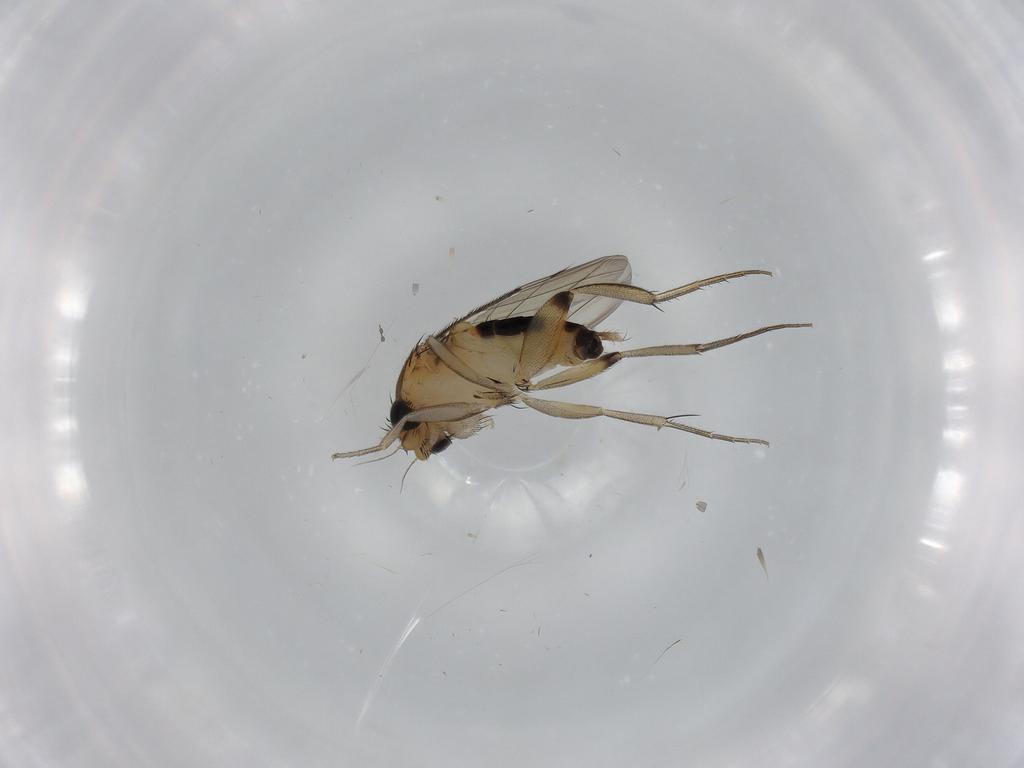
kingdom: Animalia
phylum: Arthropoda
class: Insecta
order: Diptera
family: Phoridae
